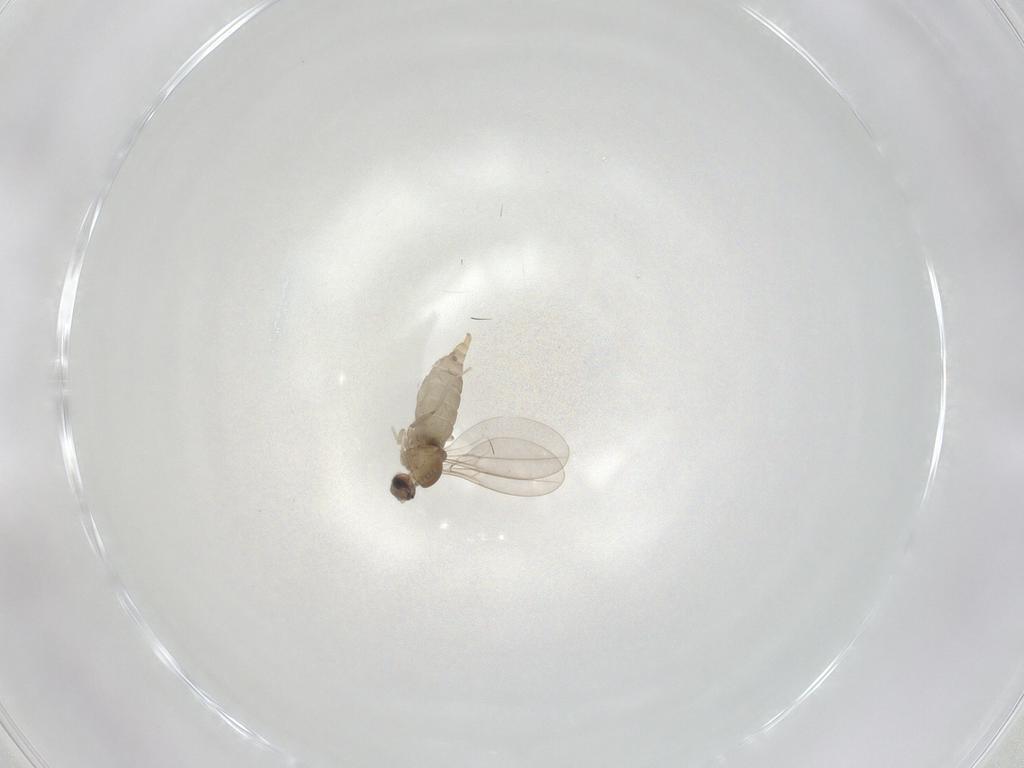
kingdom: Animalia
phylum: Arthropoda
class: Insecta
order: Diptera
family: Cecidomyiidae
